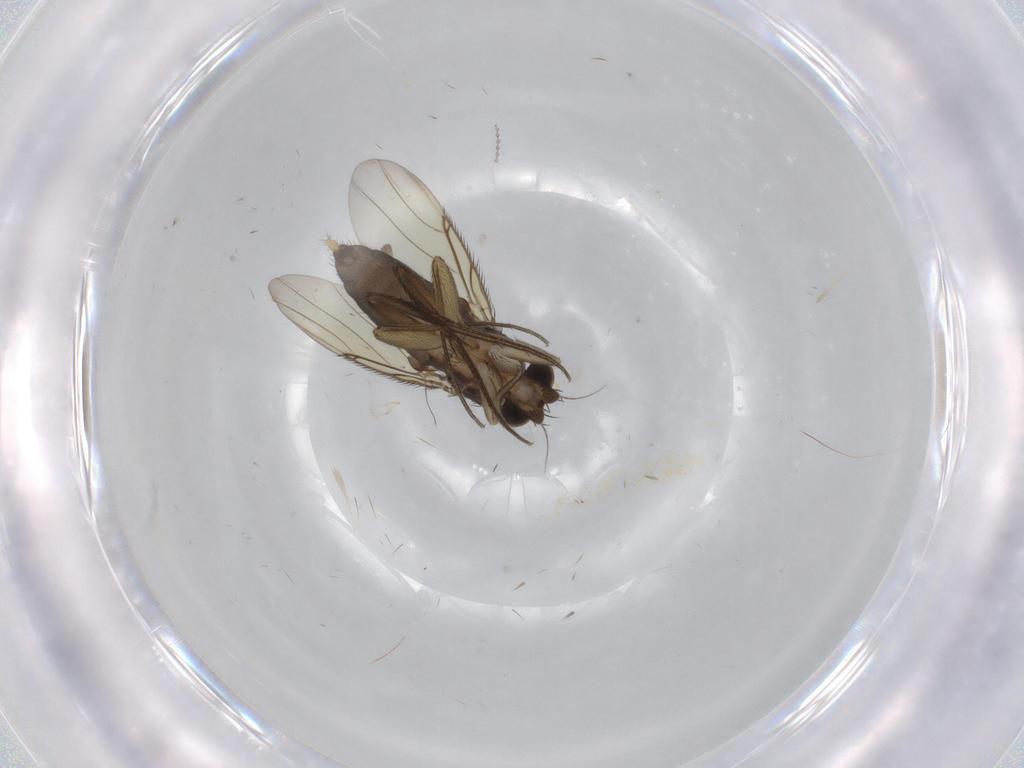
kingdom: Animalia
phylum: Arthropoda
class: Insecta
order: Diptera
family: Phoridae
